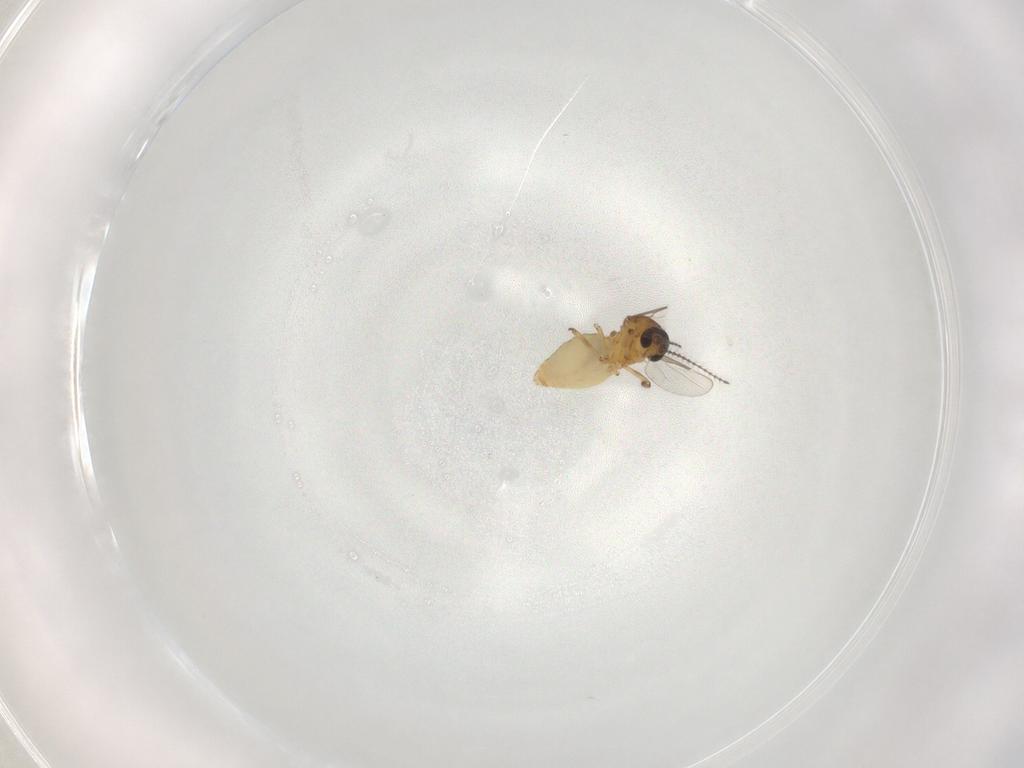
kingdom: Animalia
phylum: Arthropoda
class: Insecta
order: Diptera
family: Ceratopogonidae
